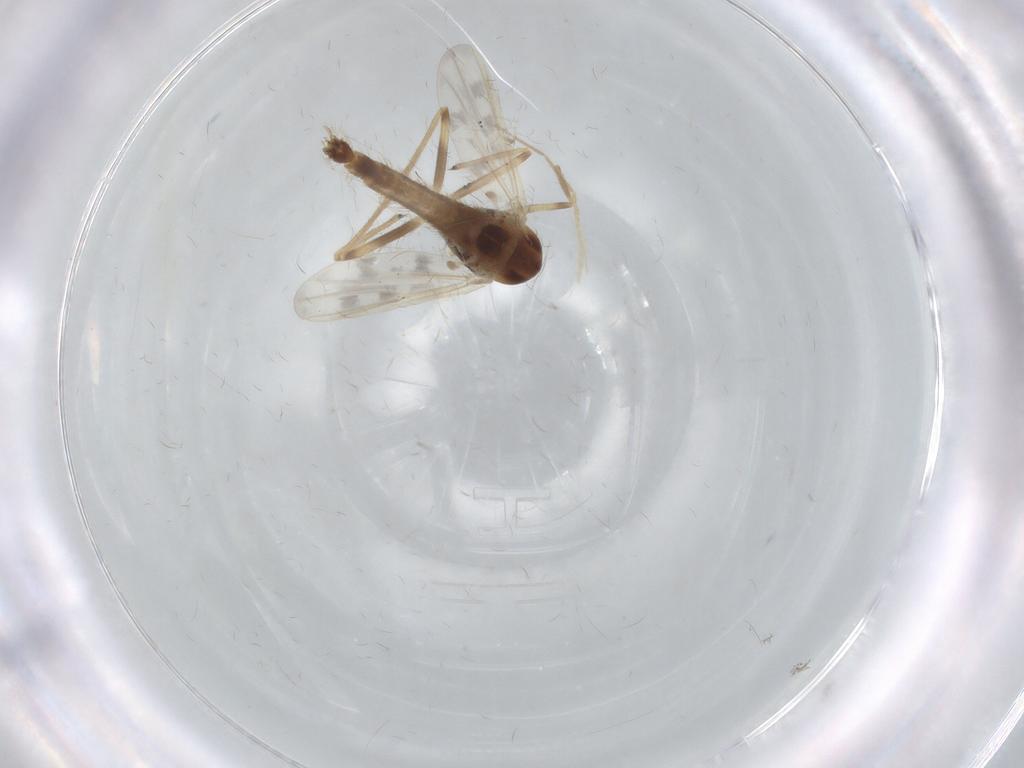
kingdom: Animalia
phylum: Arthropoda
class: Insecta
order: Diptera
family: Chironomidae
